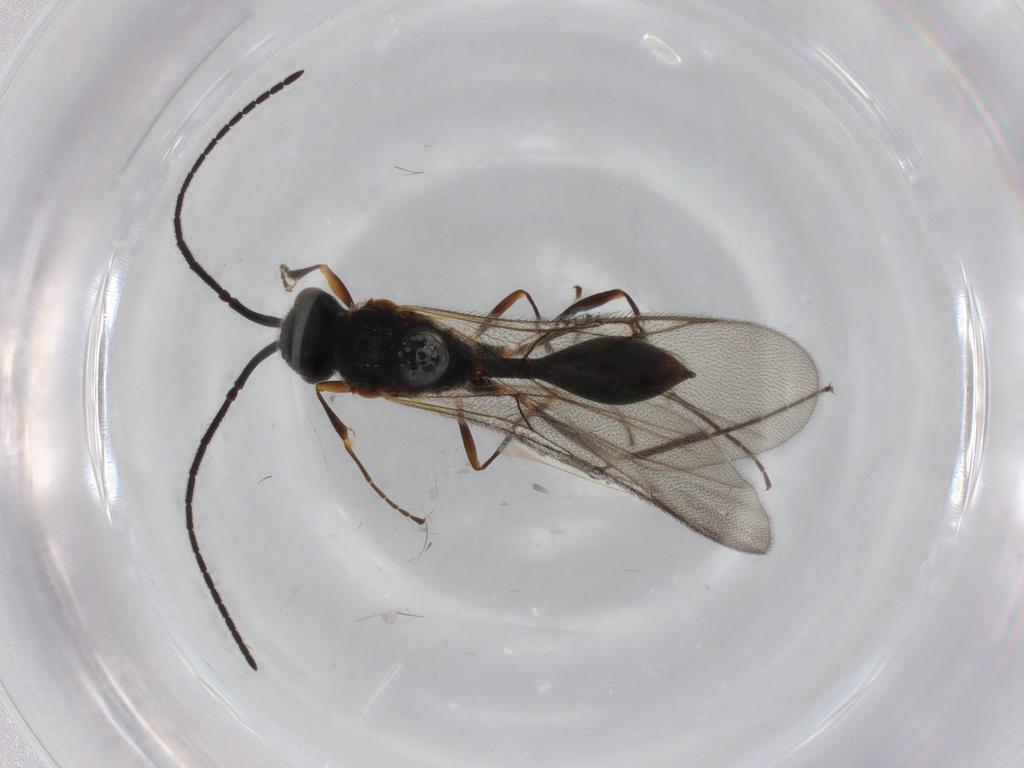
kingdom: Animalia
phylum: Arthropoda
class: Insecta
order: Hymenoptera
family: Diapriidae
